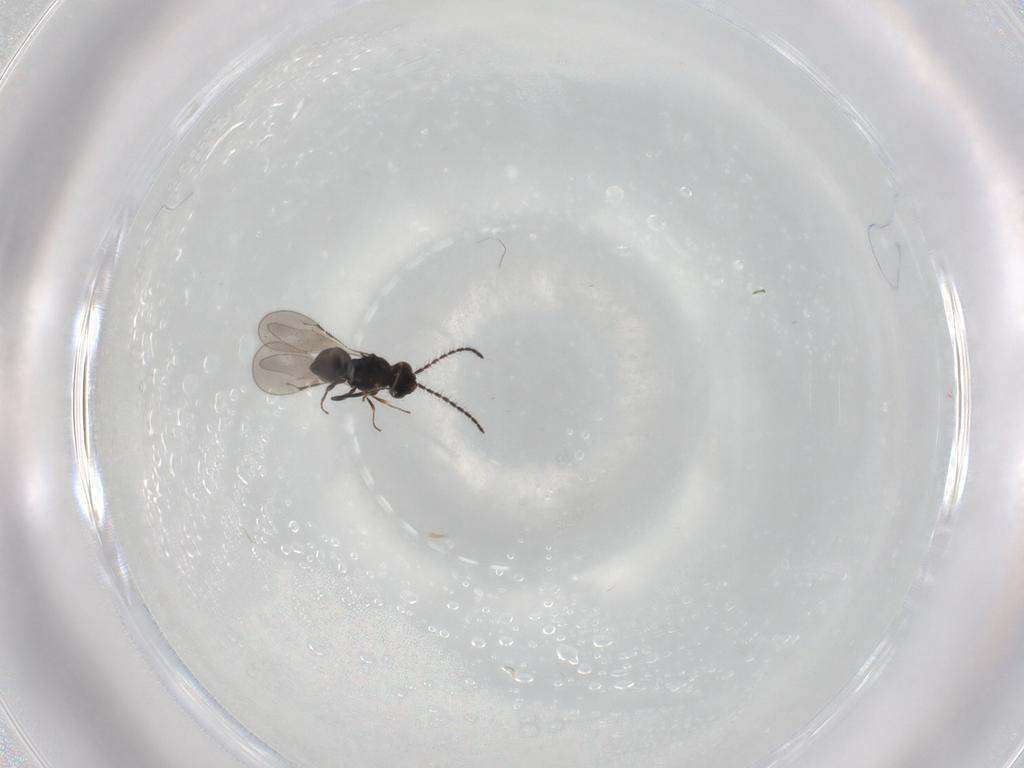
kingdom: Animalia
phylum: Arthropoda
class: Insecta
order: Hymenoptera
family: Ceraphronidae
